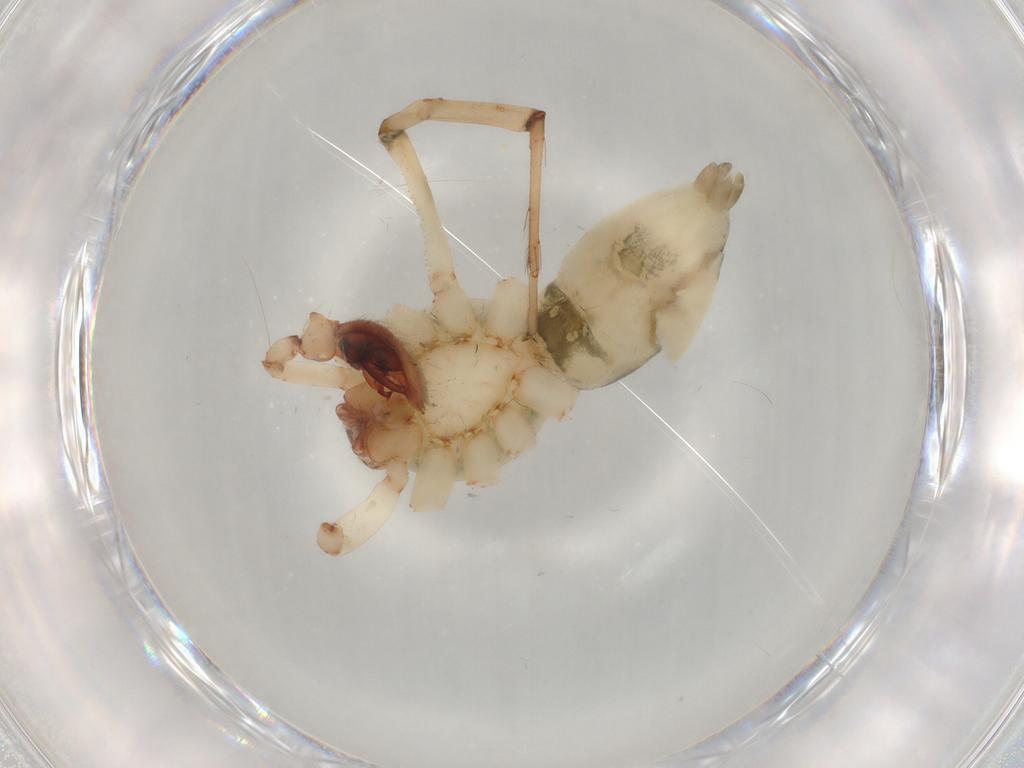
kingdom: Animalia
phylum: Arthropoda
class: Arachnida
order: Araneae
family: Anyphaenidae
